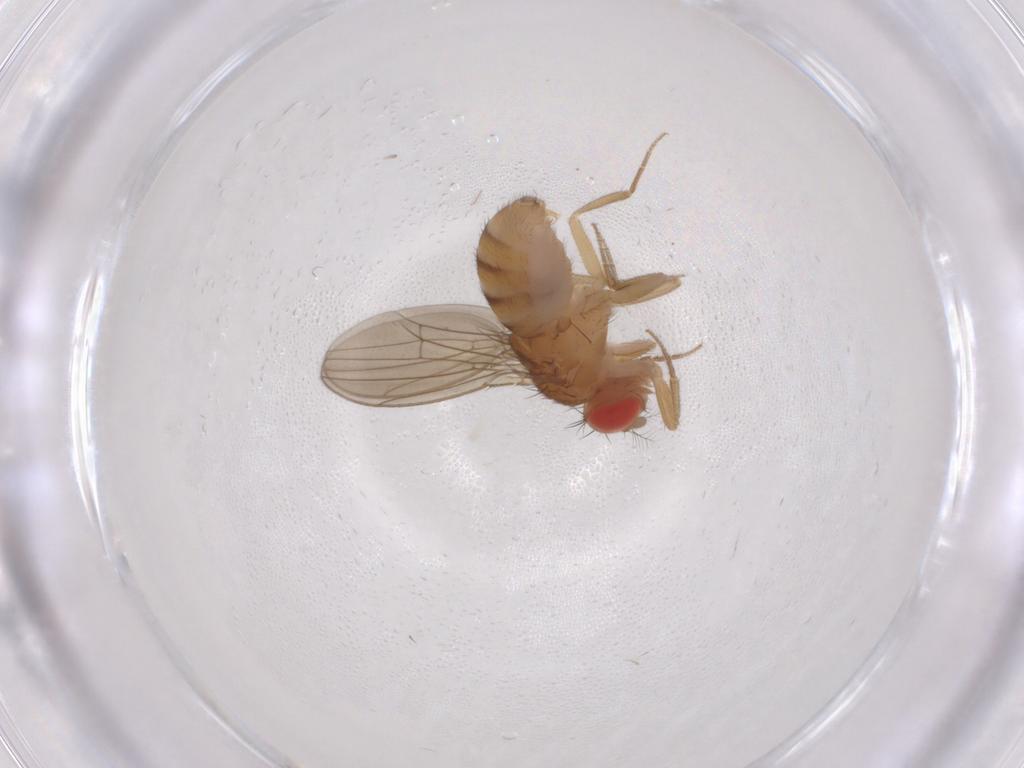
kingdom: Animalia
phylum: Arthropoda
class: Insecta
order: Diptera
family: Drosophilidae
